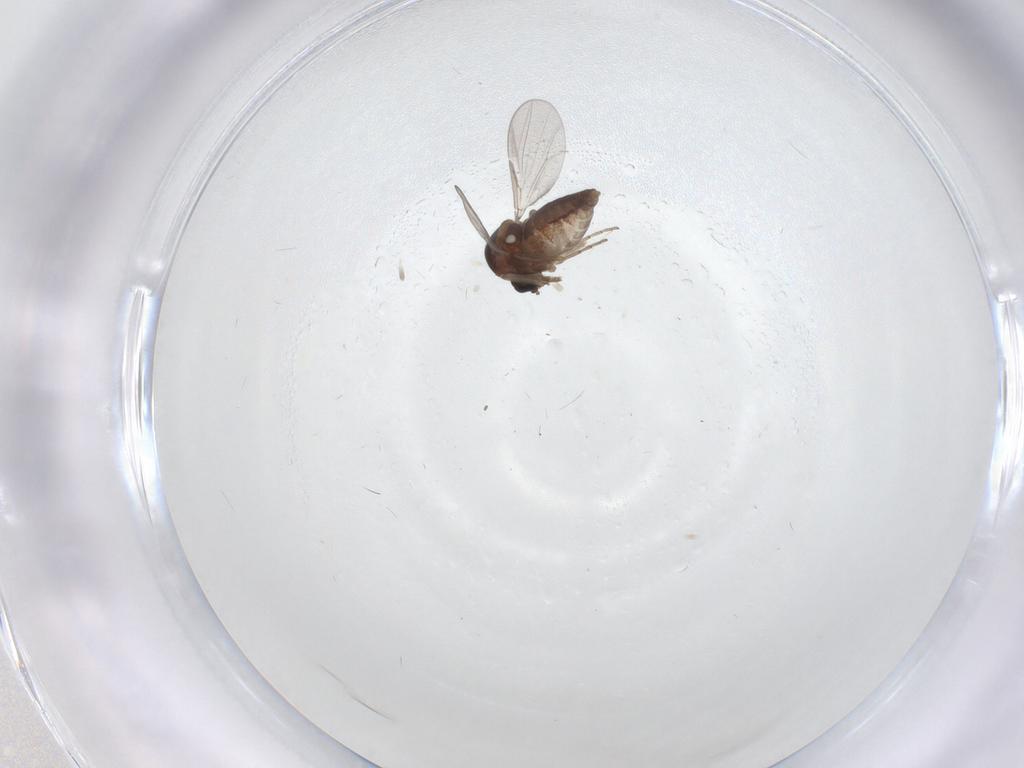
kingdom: Animalia
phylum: Arthropoda
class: Insecta
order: Diptera
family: Ceratopogonidae
